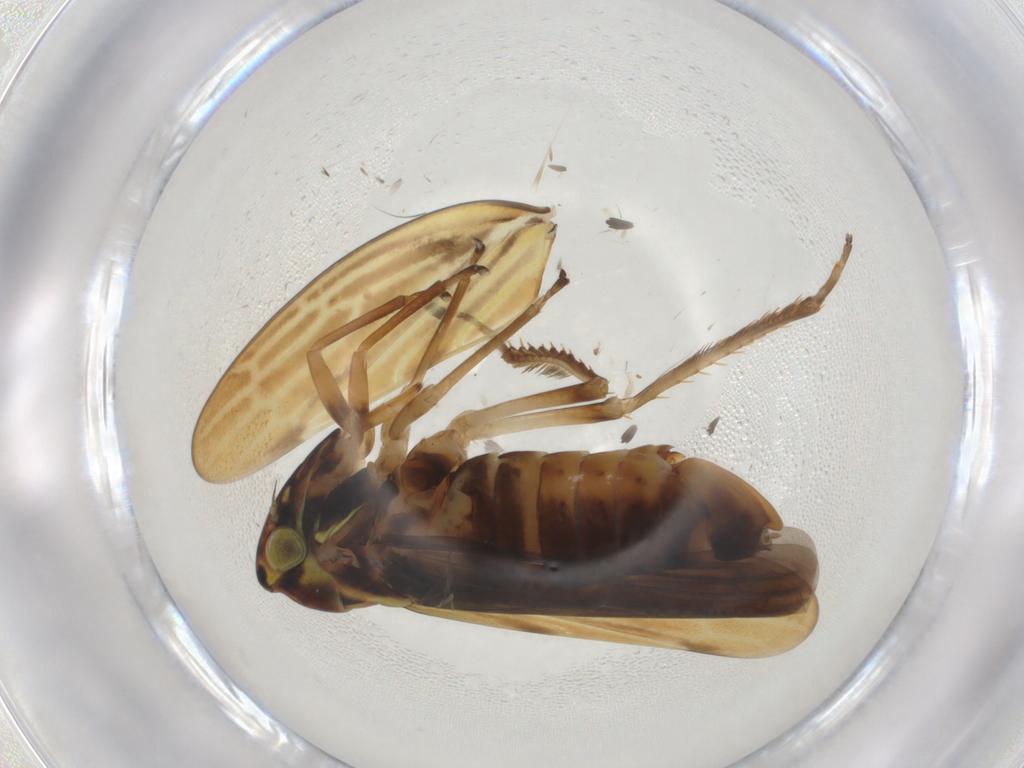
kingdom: Animalia
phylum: Arthropoda
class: Insecta
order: Hemiptera
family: Cicadellidae
